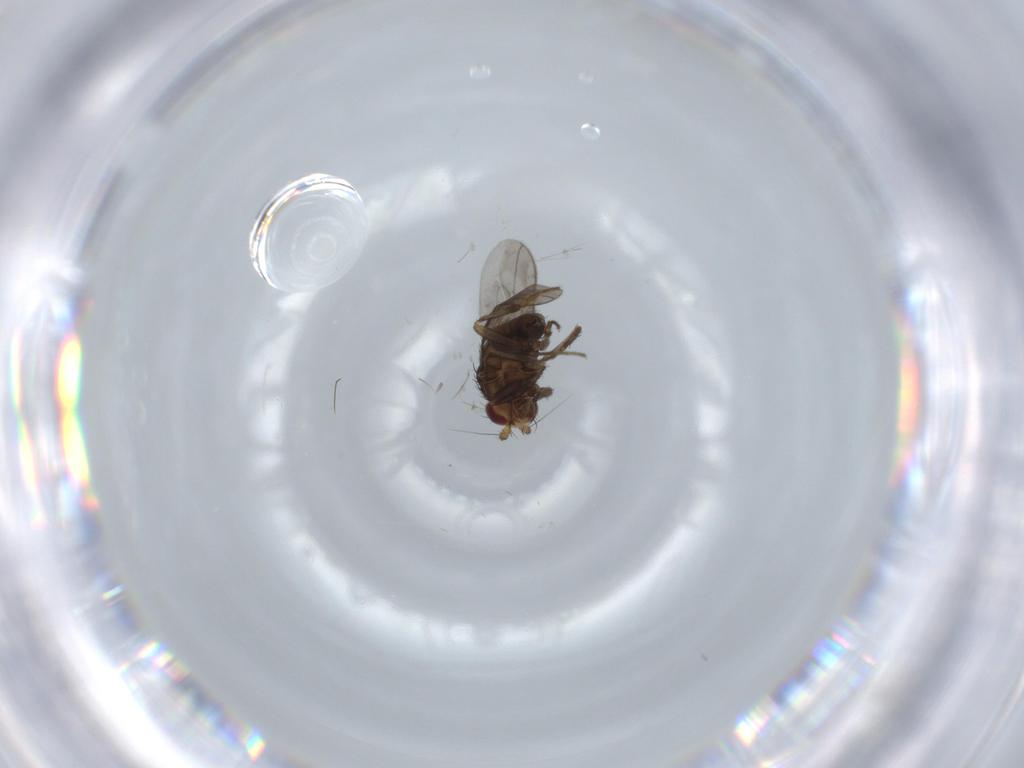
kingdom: Animalia
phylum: Arthropoda
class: Insecta
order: Diptera
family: Sphaeroceridae
